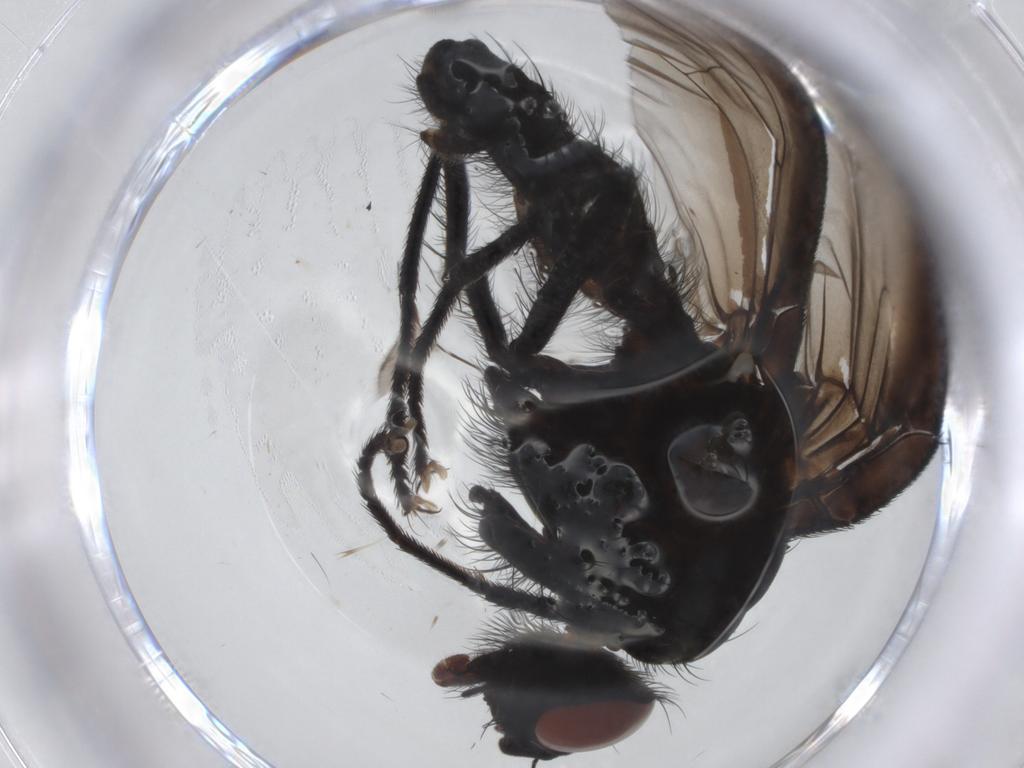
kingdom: Animalia
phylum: Arthropoda
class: Insecta
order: Diptera
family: Anthomyiidae
